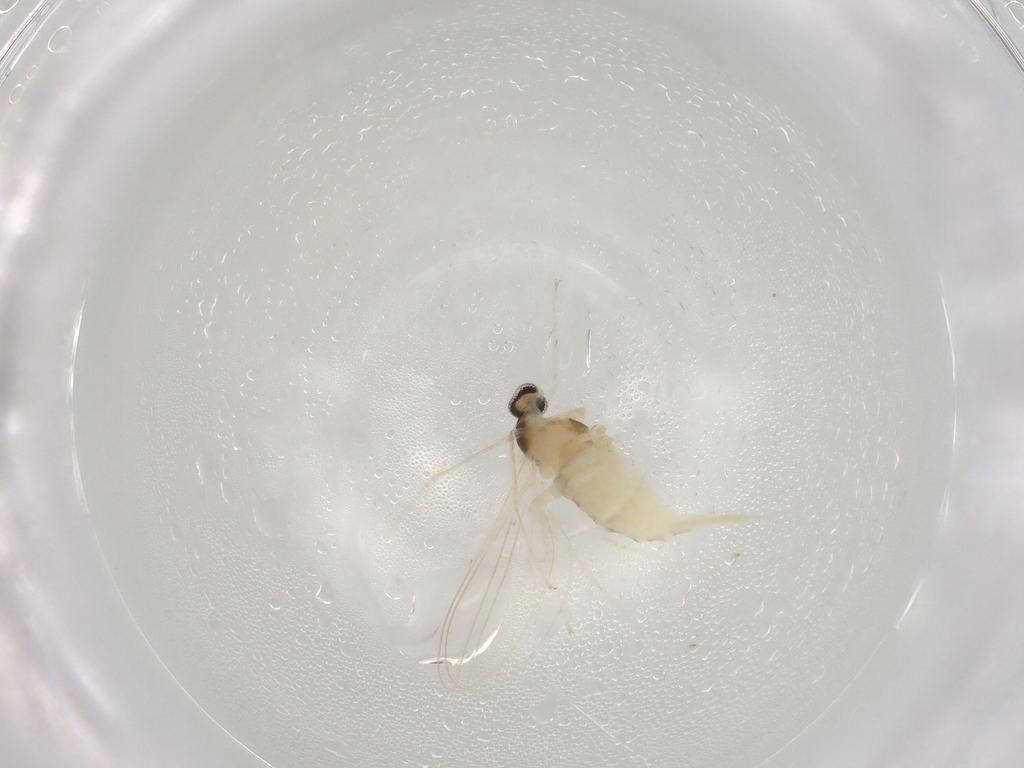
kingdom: Animalia
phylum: Arthropoda
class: Insecta
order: Diptera
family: Cecidomyiidae
